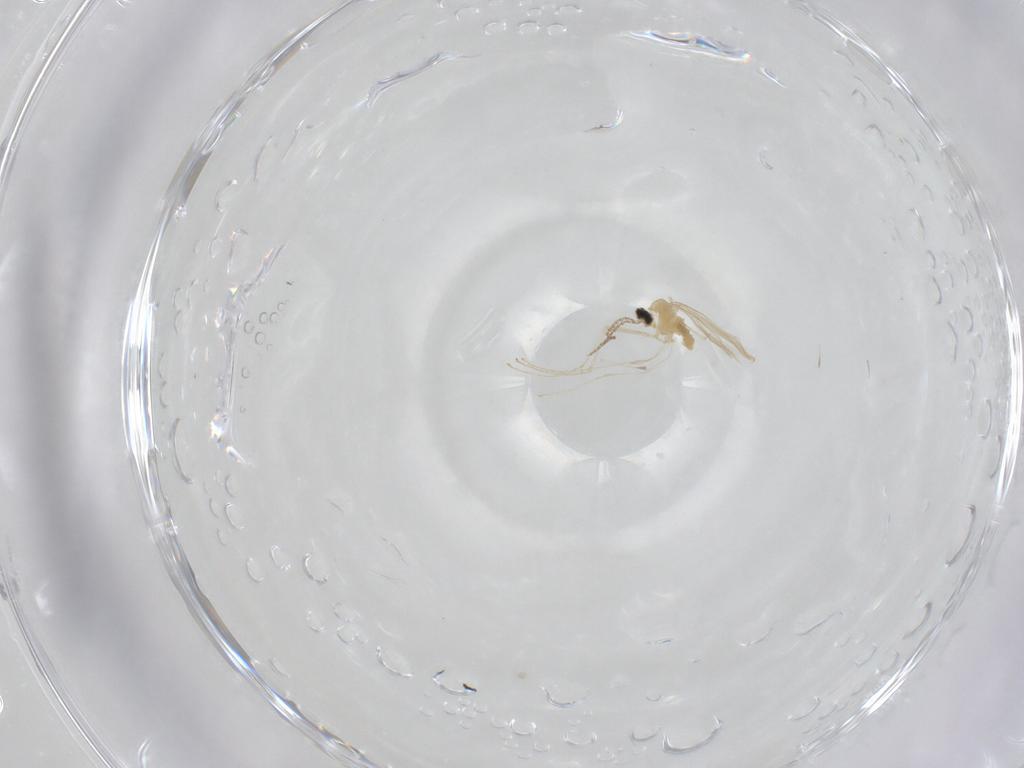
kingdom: Animalia
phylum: Arthropoda
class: Insecta
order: Diptera
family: Cecidomyiidae
